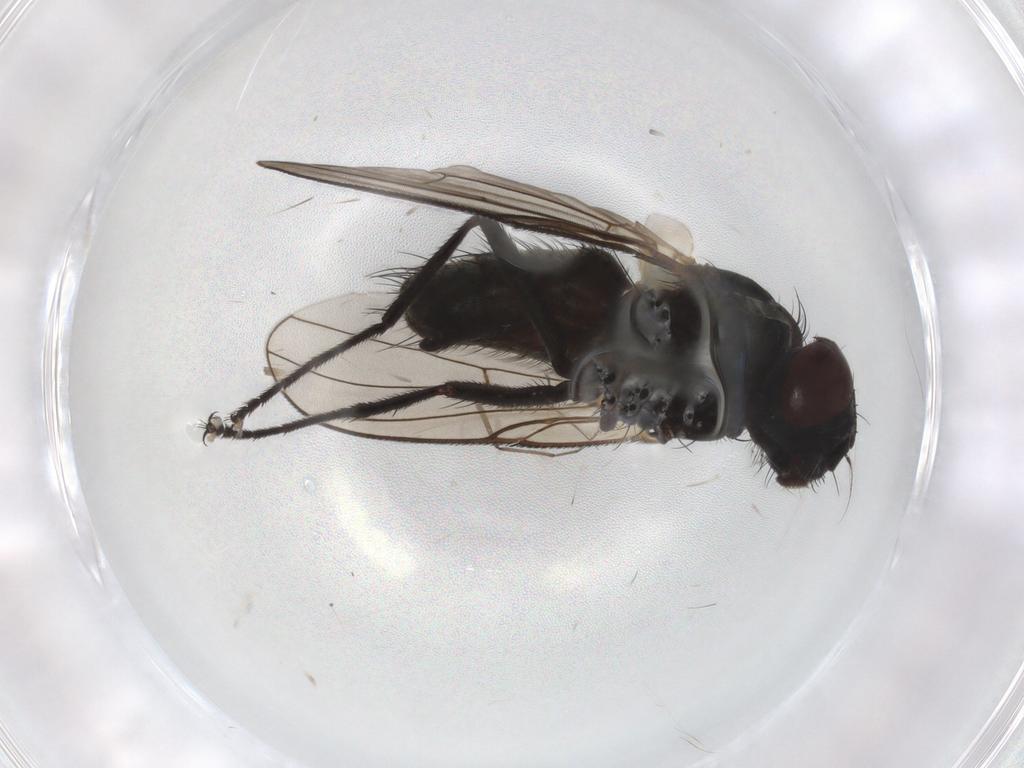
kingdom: Animalia
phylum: Arthropoda
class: Insecta
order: Diptera
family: Muscidae
